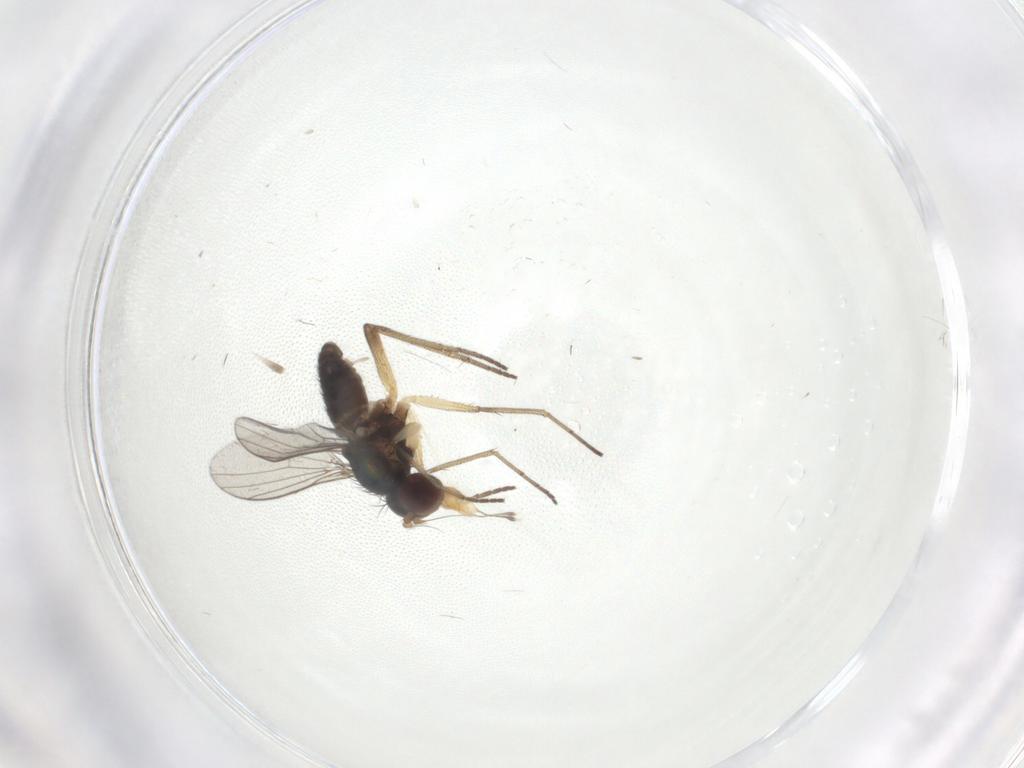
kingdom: Animalia
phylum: Arthropoda
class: Insecta
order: Diptera
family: Dolichopodidae
